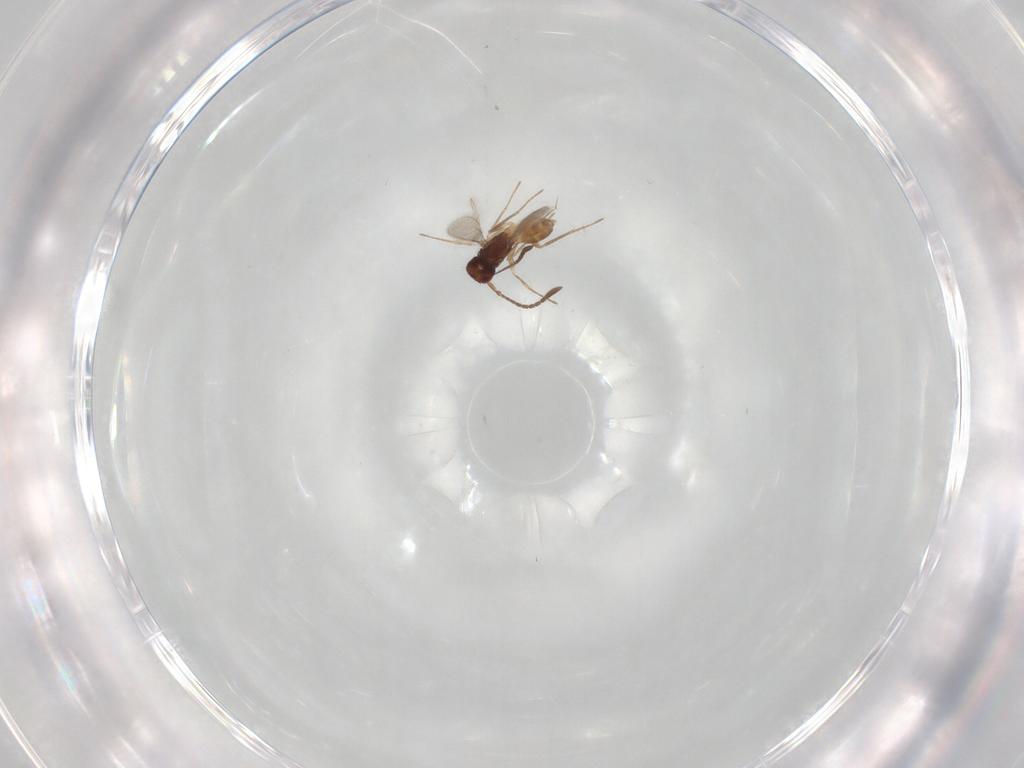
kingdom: Animalia
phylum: Arthropoda
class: Insecta
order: Hymenoptera
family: Mymaridae
